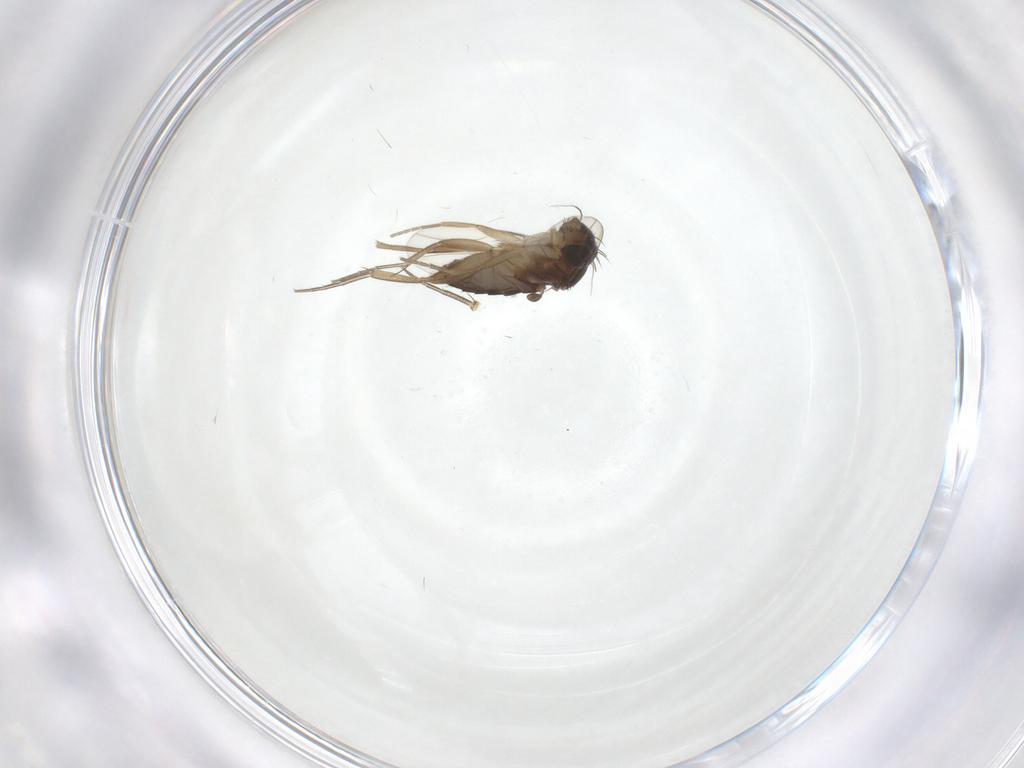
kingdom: Animalia
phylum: Arthropoda
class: Insecta
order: Diptera
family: Phoridae
